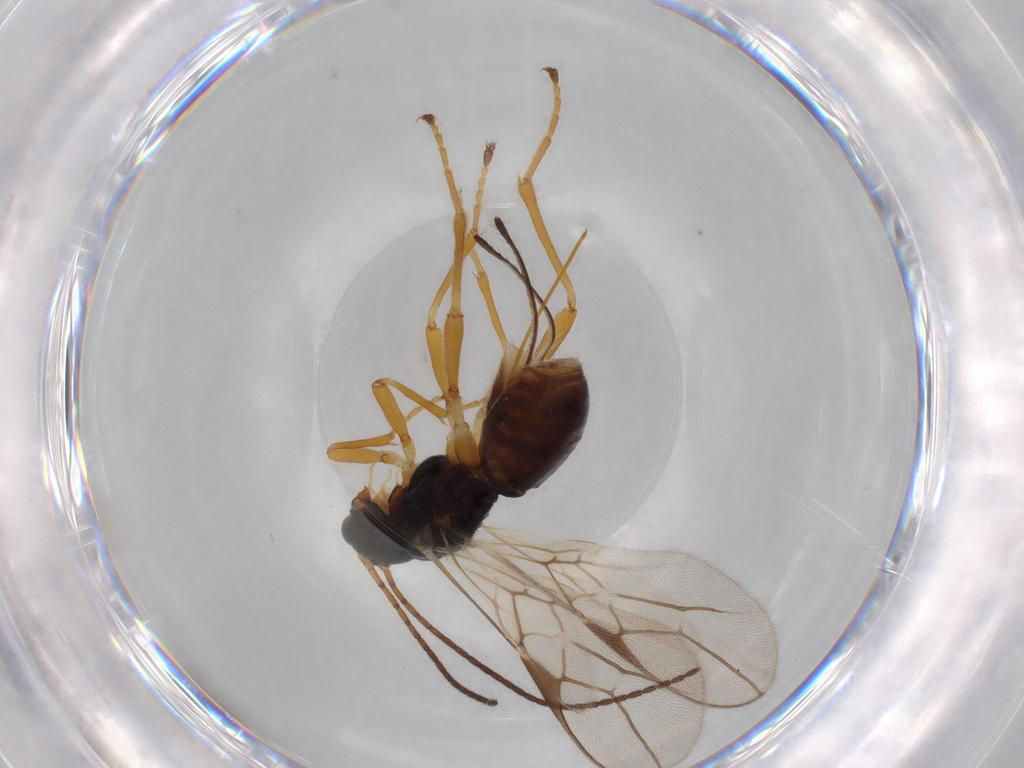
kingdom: Animalia
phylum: Arthropoda
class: Insecta
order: Hymenoptera
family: Braconidae
